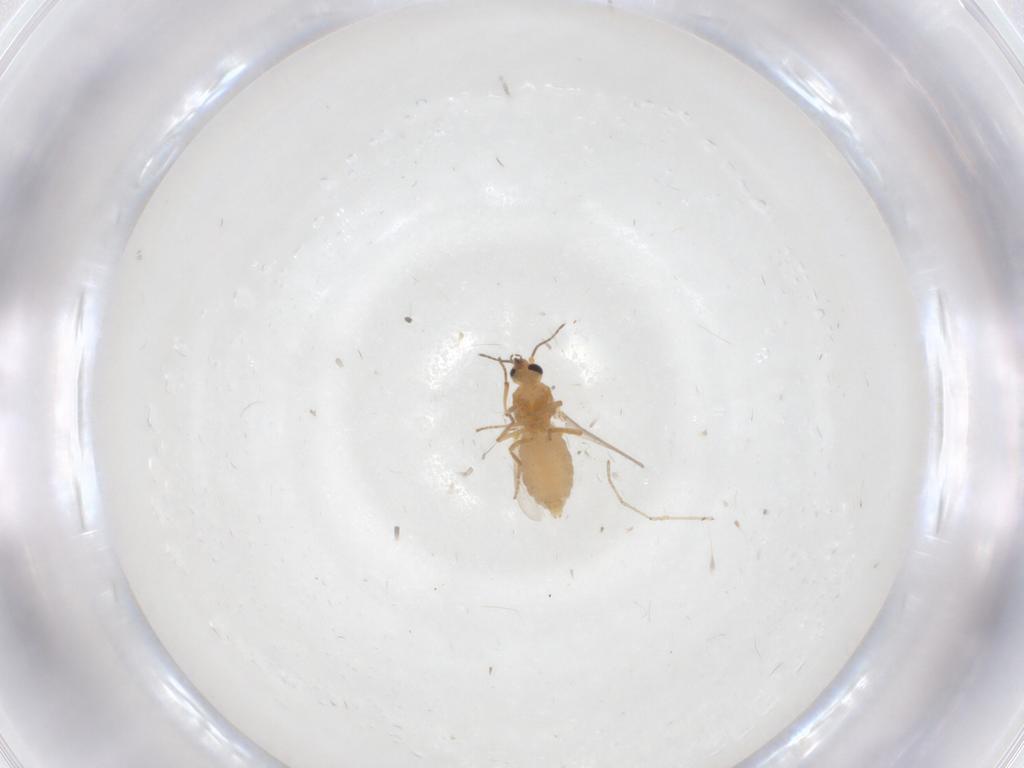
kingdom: Animalia
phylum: Arthropoda
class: Insecta
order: Diptera
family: Ceratopogonidae
